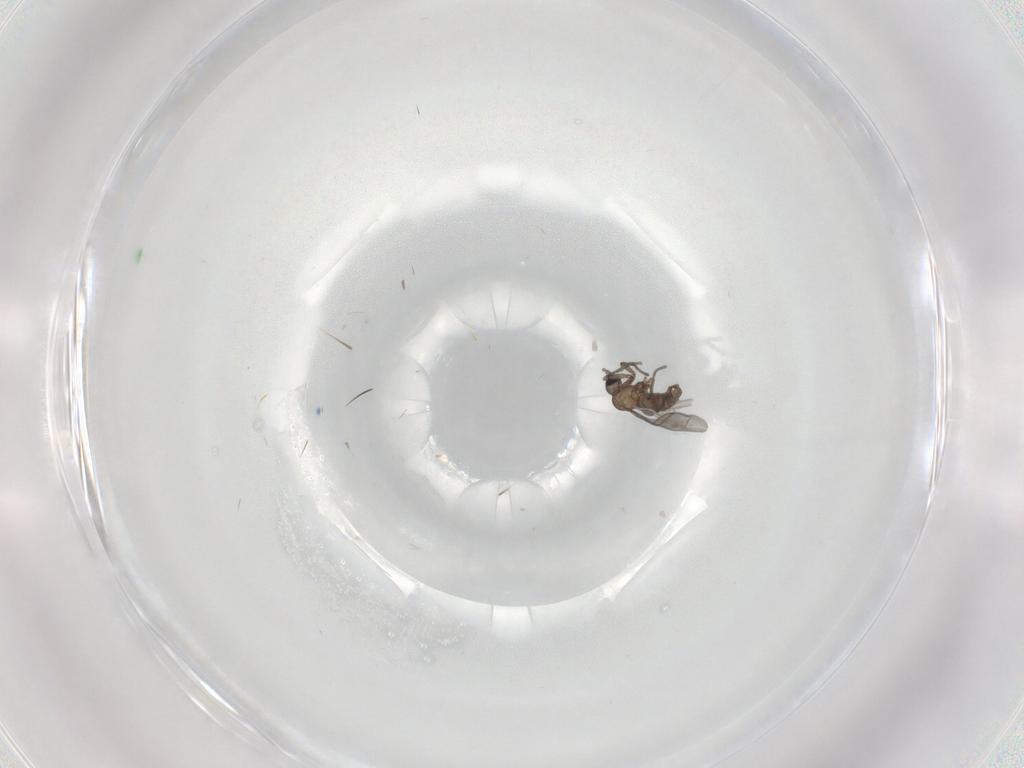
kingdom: Animalia
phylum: Arthropoda
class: Insecta
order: Diptera
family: Sciaridae
